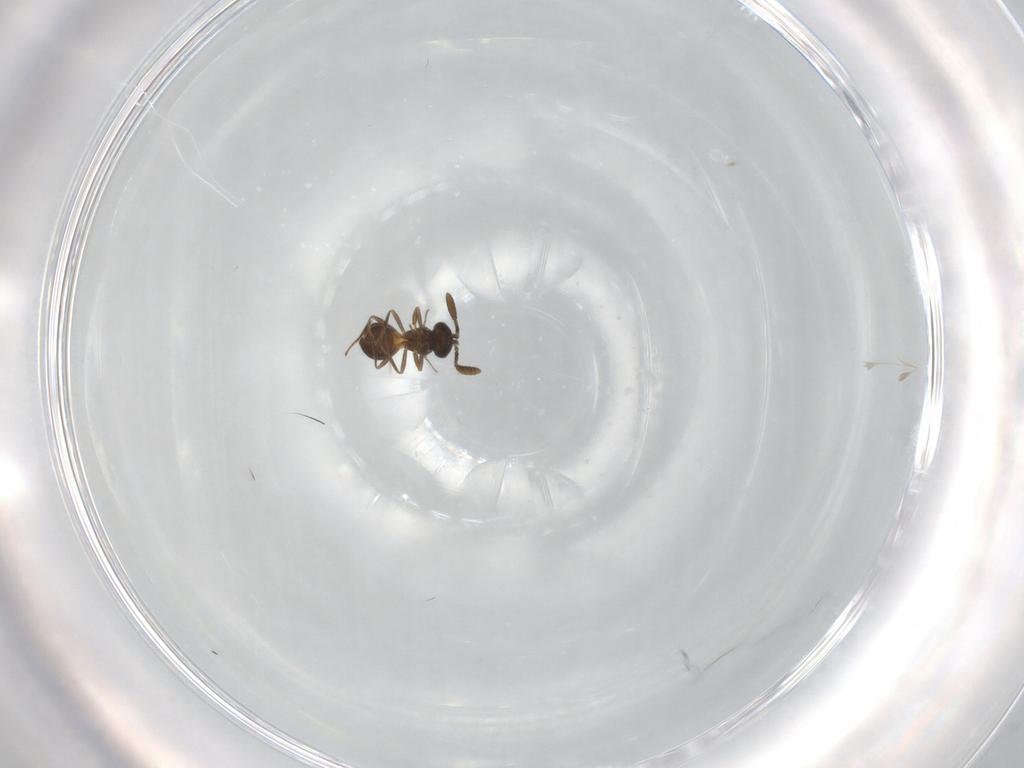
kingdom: Animalia
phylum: Arthropoda
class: Insecta
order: Hymenoptera
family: Scelionidae
